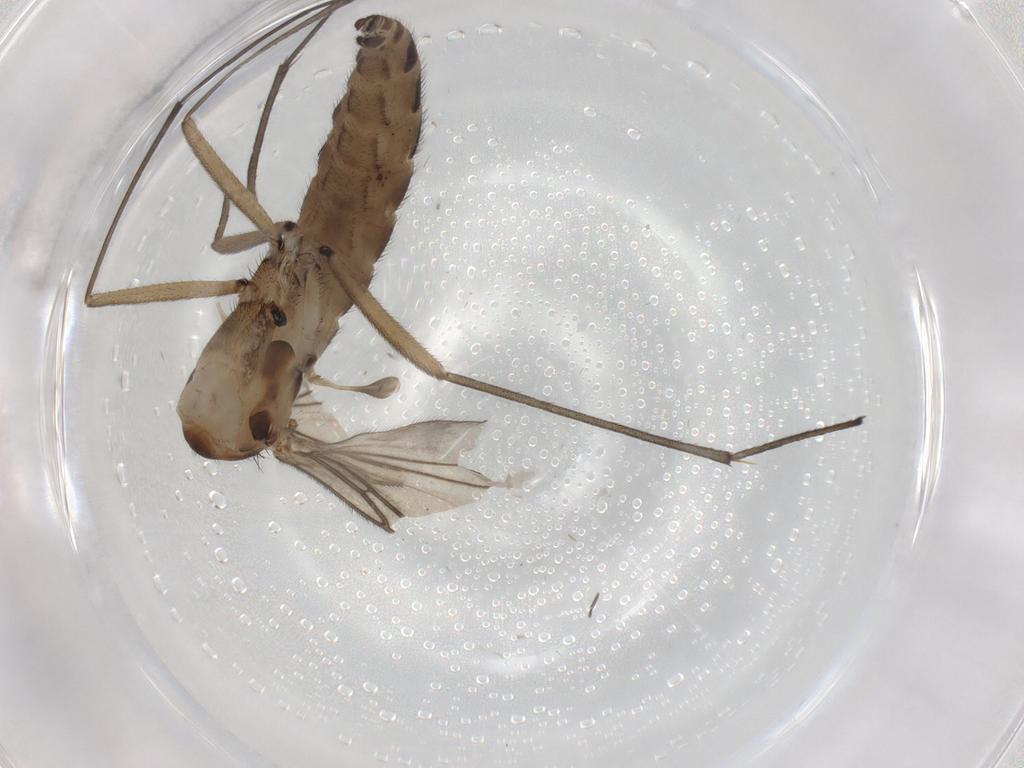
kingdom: Animalia
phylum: Arthropoda
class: Insecta
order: Diptera
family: Sciaridae
